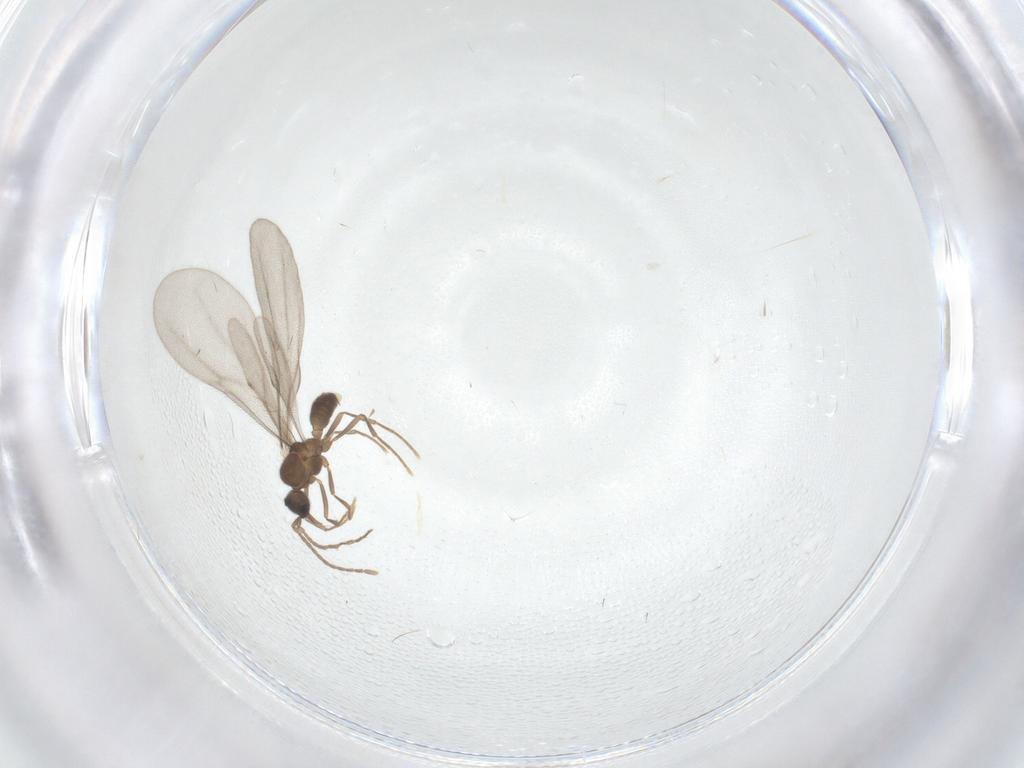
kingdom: Animalia
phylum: Arthropoda
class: Insecta
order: Hymenoptera
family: Formicidae
